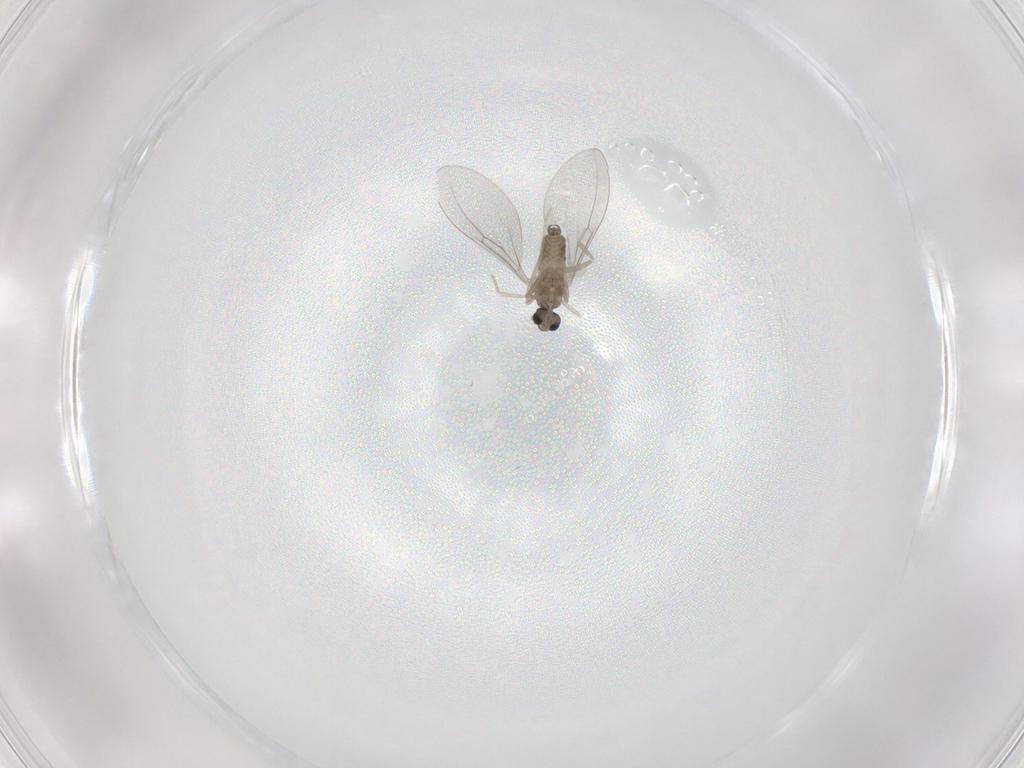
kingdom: Animalia
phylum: Arthropoda
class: Insecta
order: Diptera
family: Cecidomyiidae
